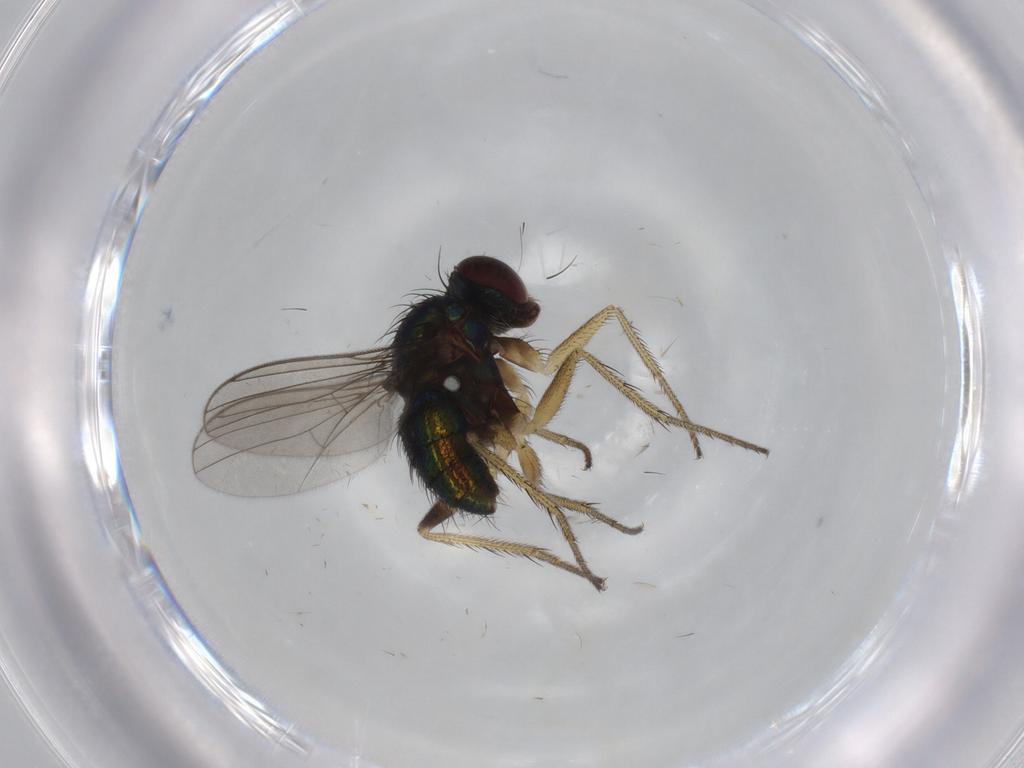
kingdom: Animalia
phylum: Arthropoda
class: Insecta
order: Diptera
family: Dolichopodidae
